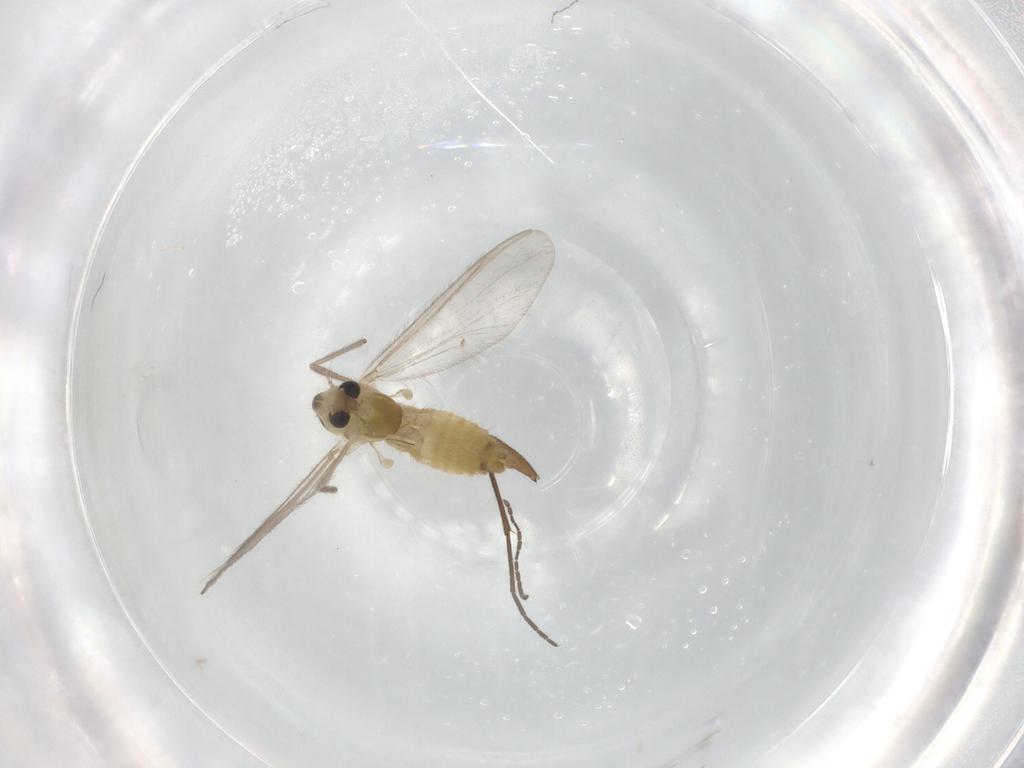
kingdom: Animalia
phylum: Arthropoda
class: Insecta
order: Diptera
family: Chironomidae
